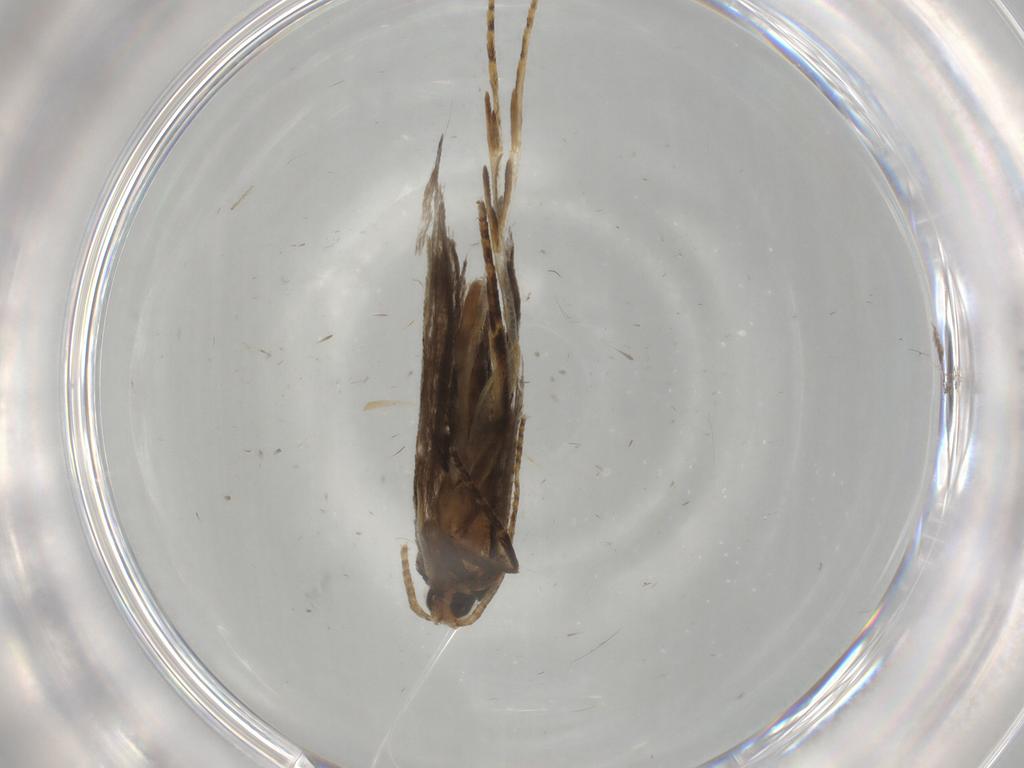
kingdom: Animalia
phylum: Arthropoda
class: Insecta
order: Lepidoptera
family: Gelechiidae
